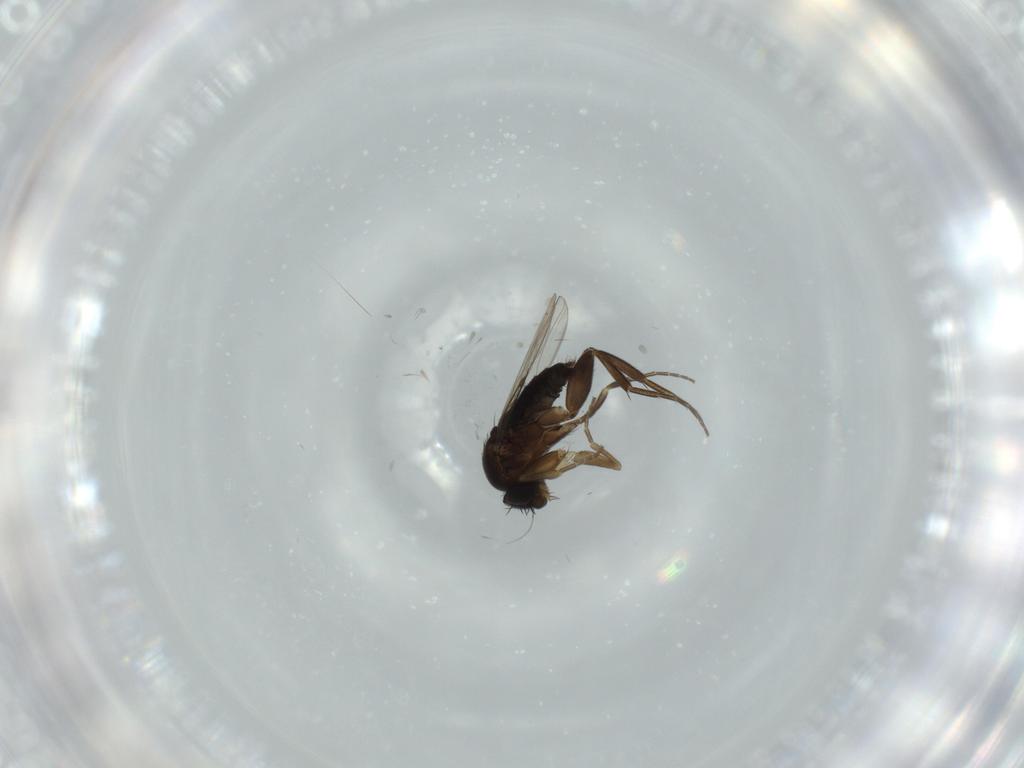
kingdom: Animalia
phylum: Arthropoda
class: Insecta
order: Diptera
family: Phoridae
